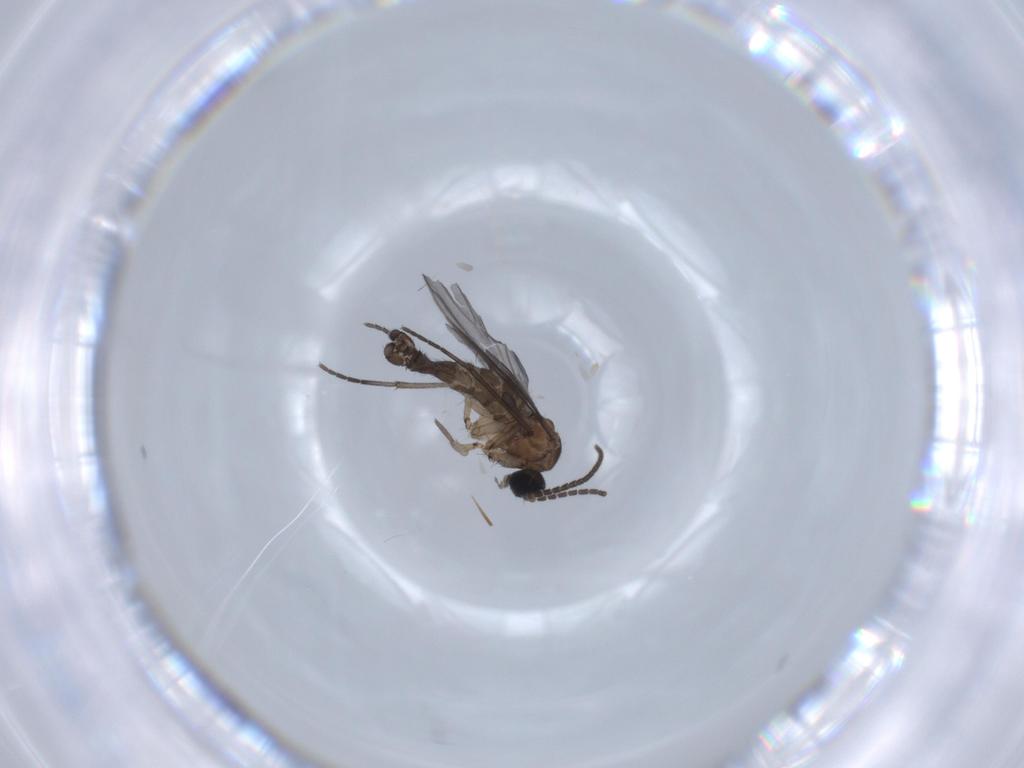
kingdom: Animalia
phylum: Arthropoda
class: Insecta
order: Diptera
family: Sciaridae
